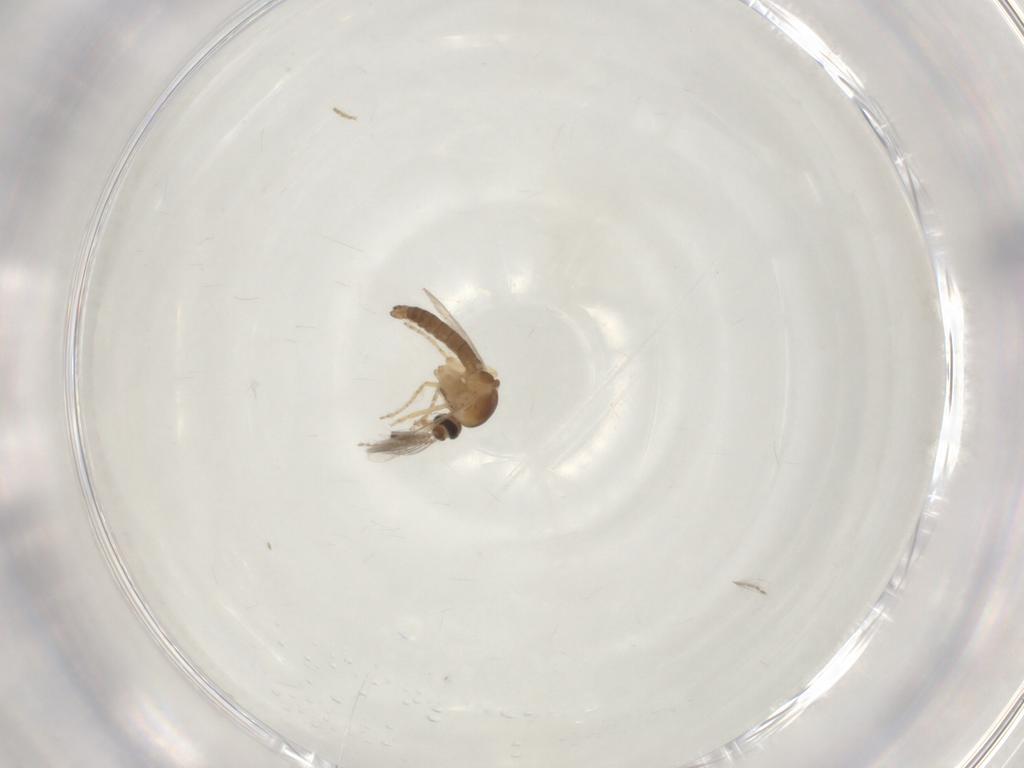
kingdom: Animalia
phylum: Arthropoda
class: Insecta
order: Diptera
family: Ceratopogonidae
